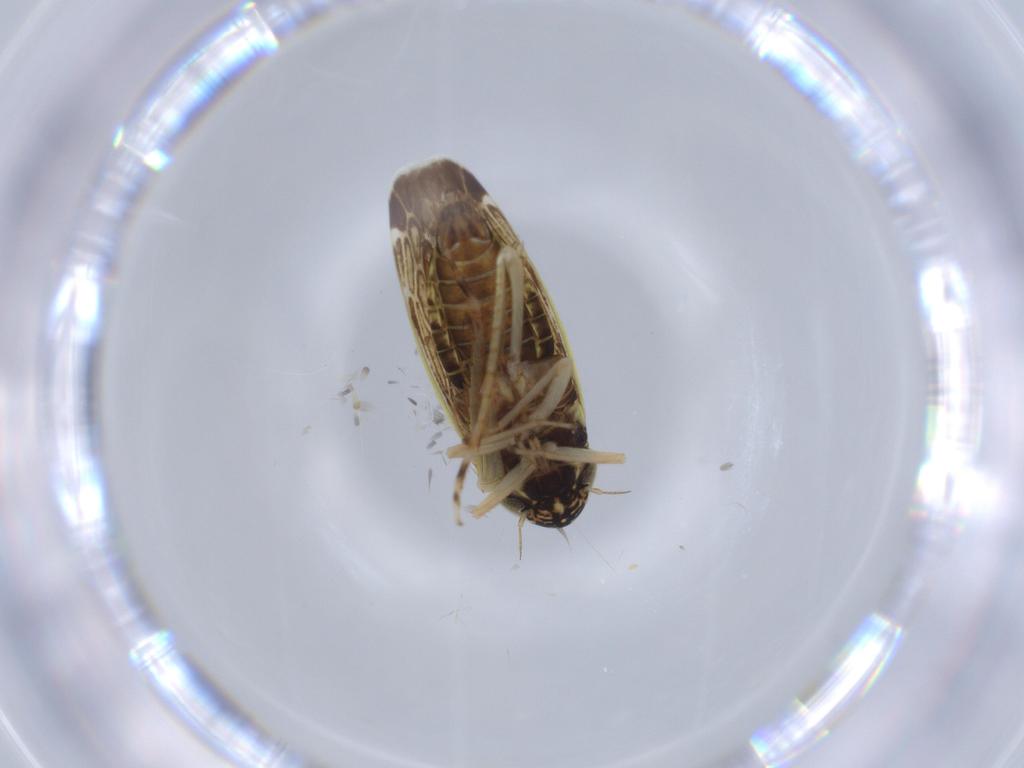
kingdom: Animalia
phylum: Arthropoda
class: Insecta
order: Hemiptera
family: Cicadellidae
